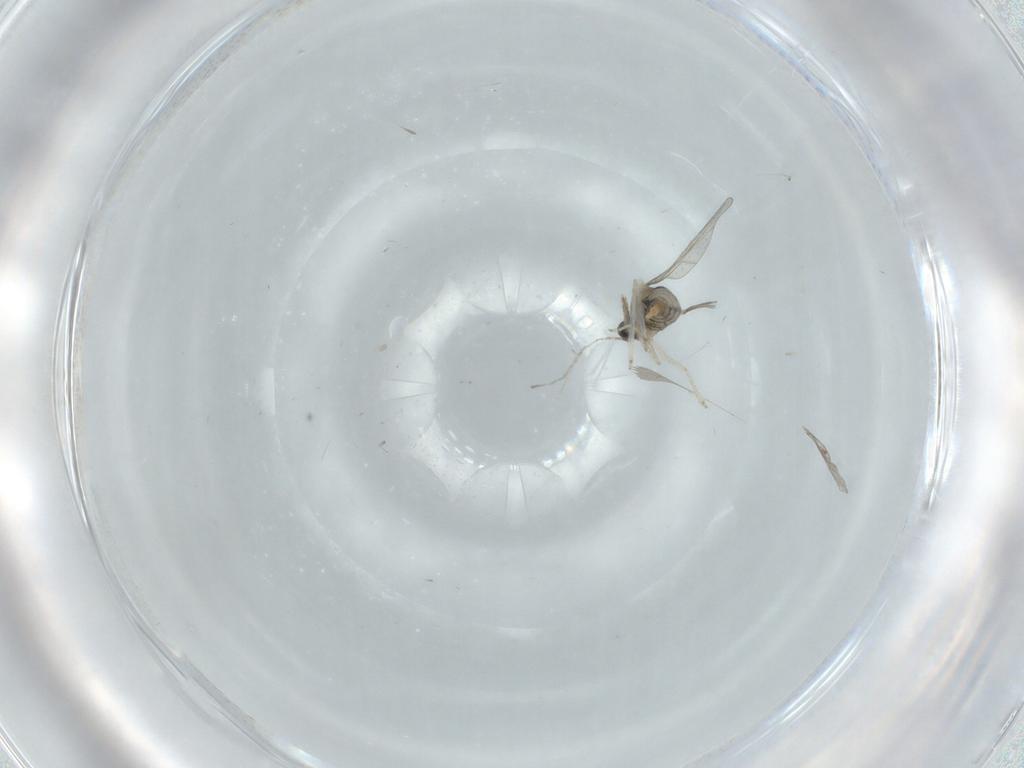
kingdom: Animalia
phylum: Arthropoda
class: Insecta
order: Diptera
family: Cecidomyiidae
